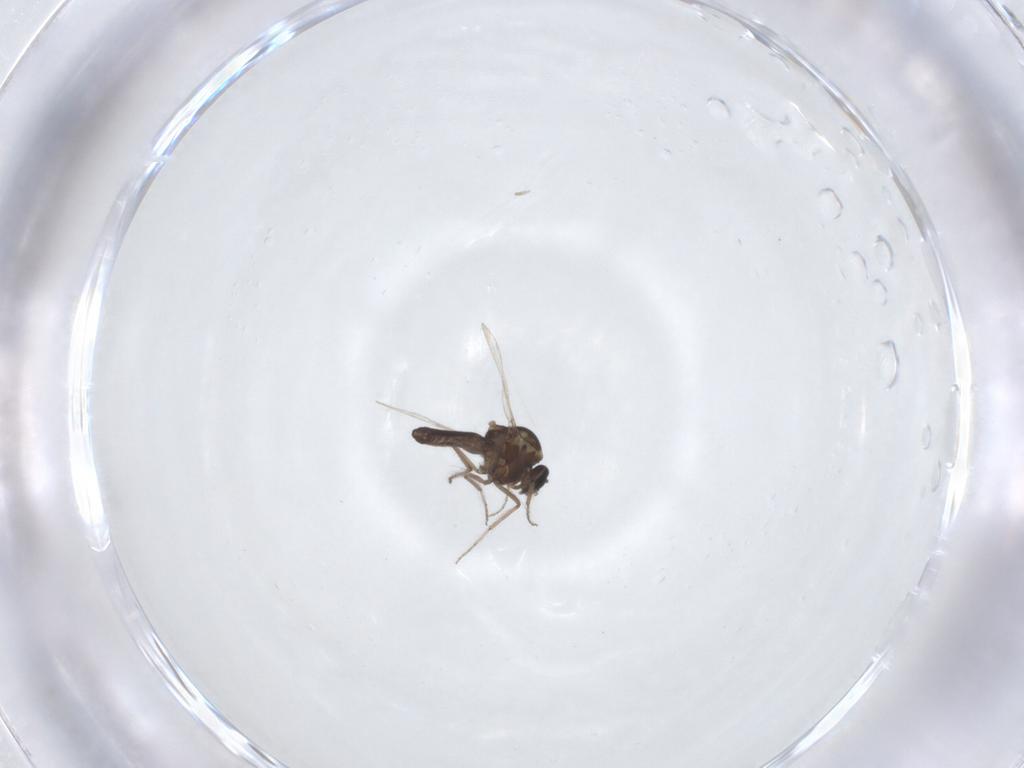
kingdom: Animalia
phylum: Arthropoda
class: Insecta
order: Diptera
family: Ceratopogonidae
